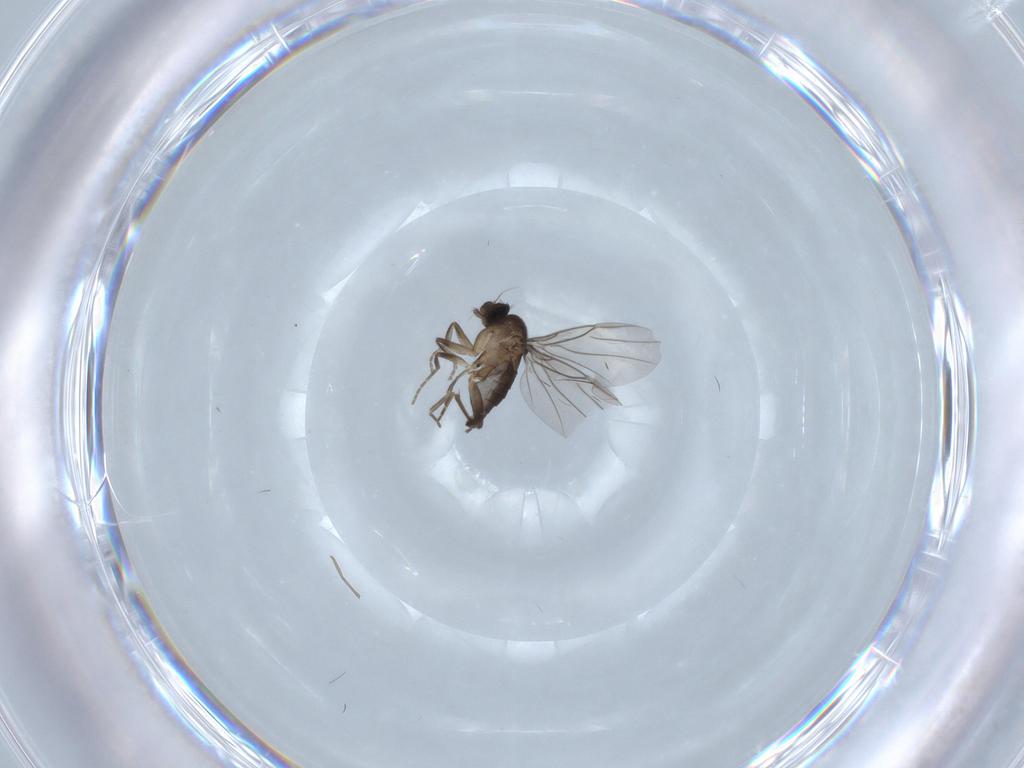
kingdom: Animalia
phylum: Arthropoda
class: Insecta
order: Diptera
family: Phoridae
